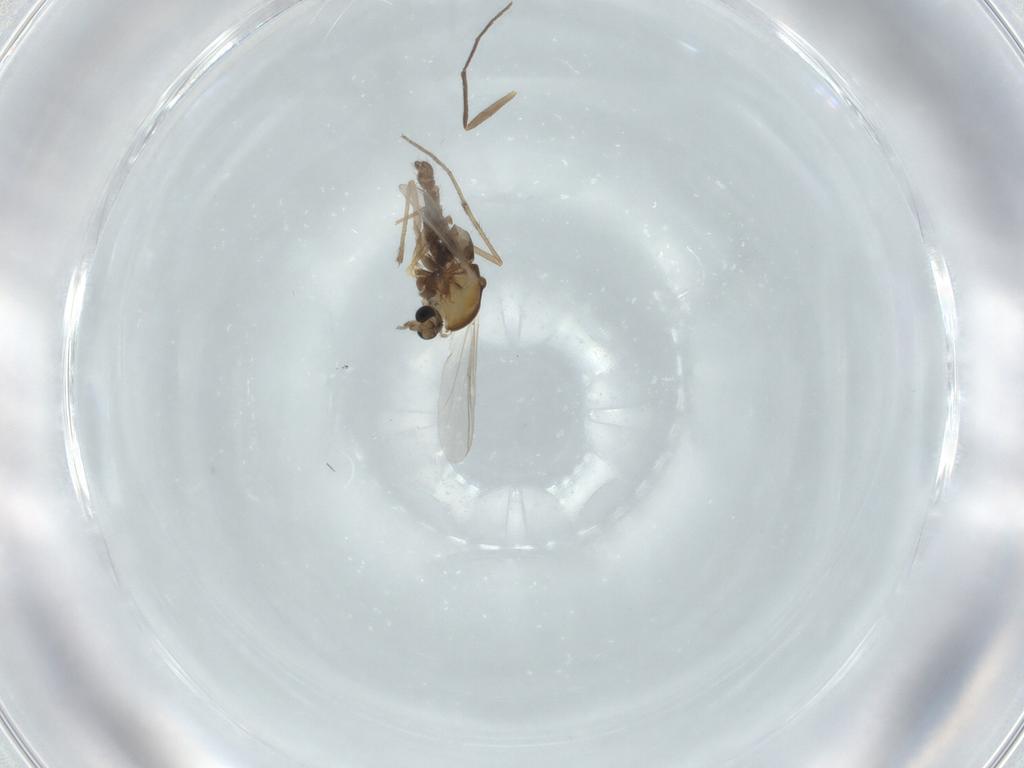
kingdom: Animalia
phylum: Arthropoda
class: Insecta
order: Diptera
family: Chironomidae
